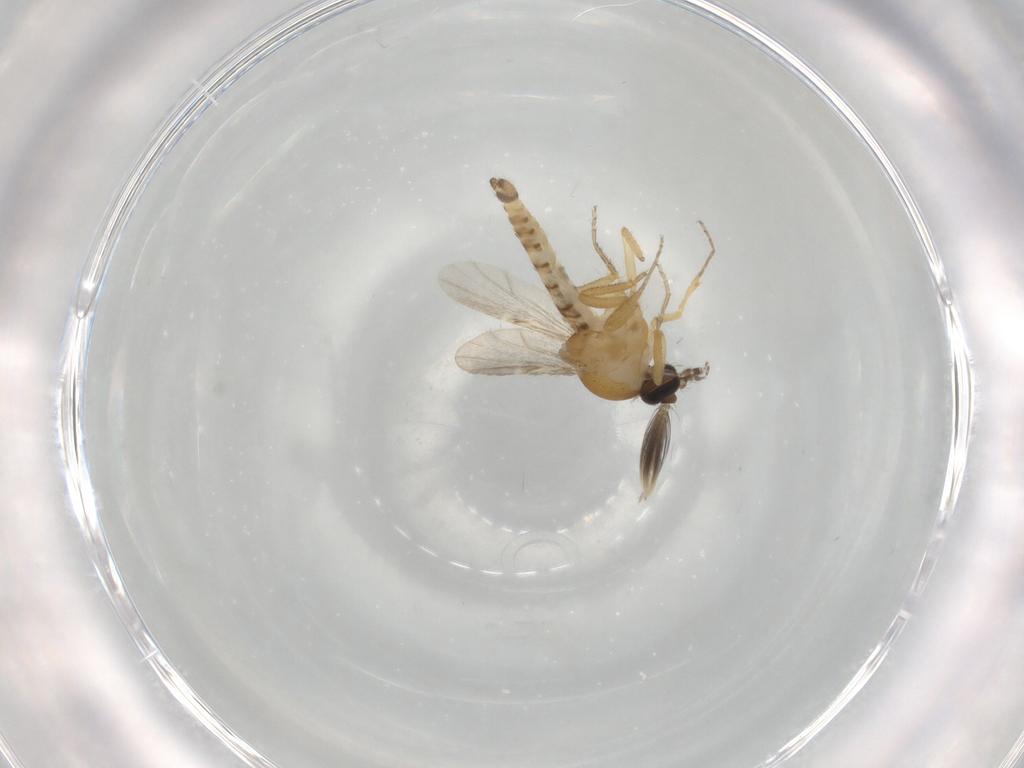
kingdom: Animalia
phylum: Arthropoda
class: Insecta
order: Diptera
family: Ceratopogonidae
